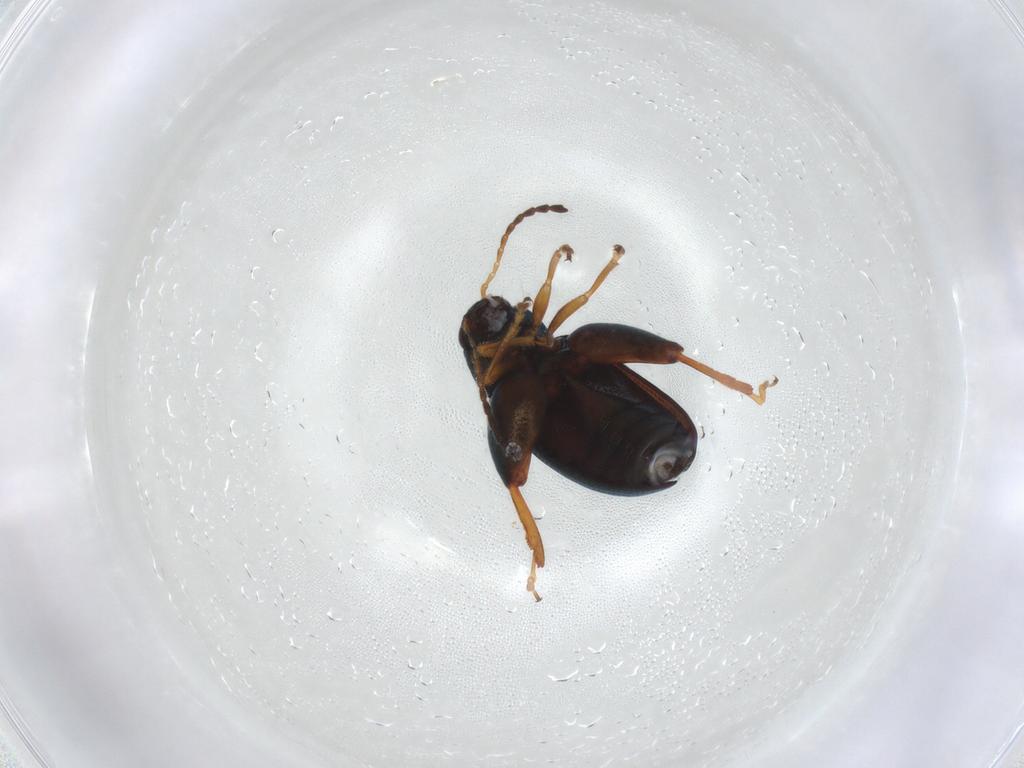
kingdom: Animalia
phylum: Arthropoda
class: Insecta
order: Coleoptera
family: Chrysomelidae
